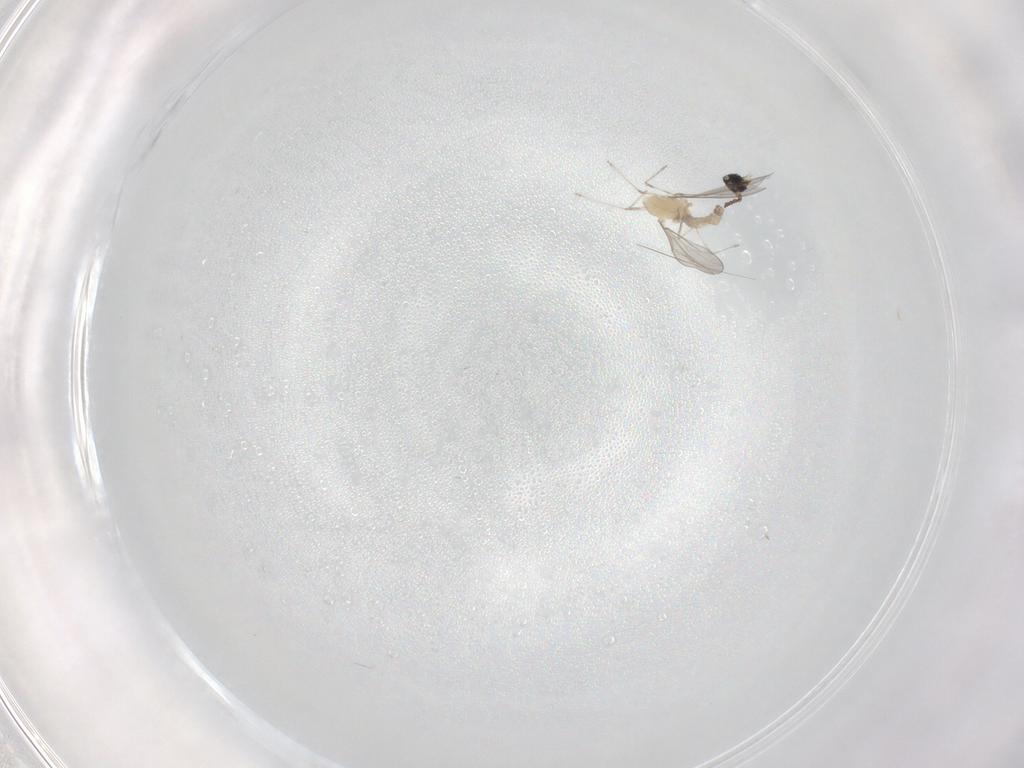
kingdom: Animalia
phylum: Arthropoda
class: Insecta
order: Diptera
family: Cecidomyiidae
